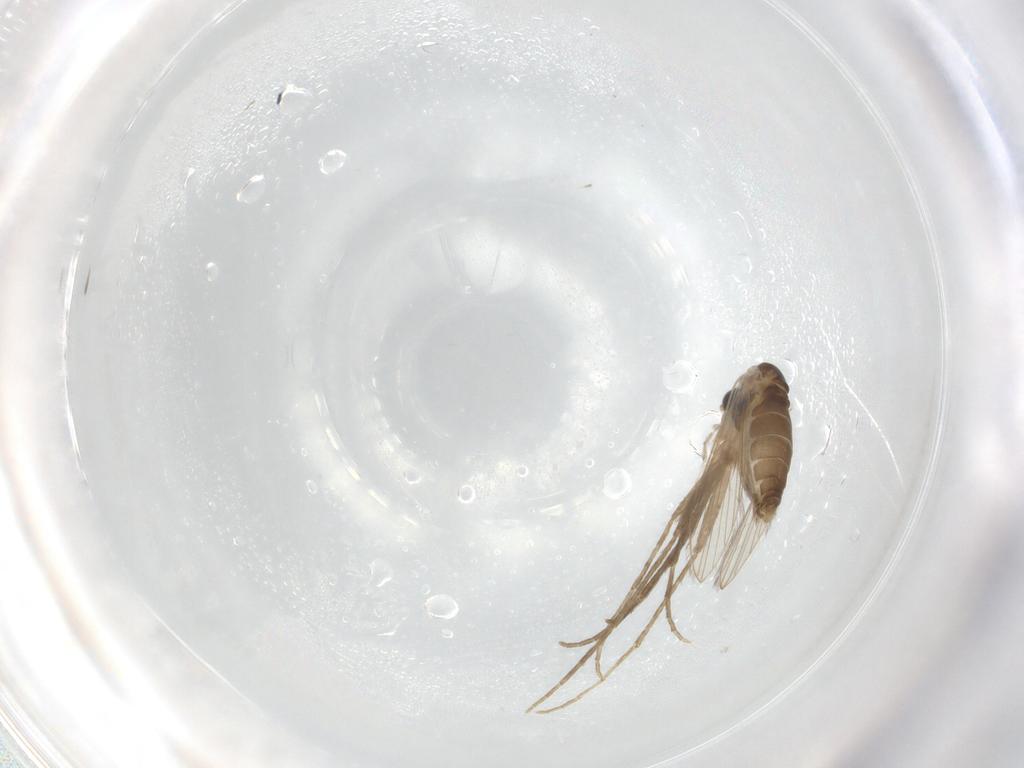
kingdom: Animalia
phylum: Arthropoda
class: Insecta
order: Diptera
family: Psychodidae
